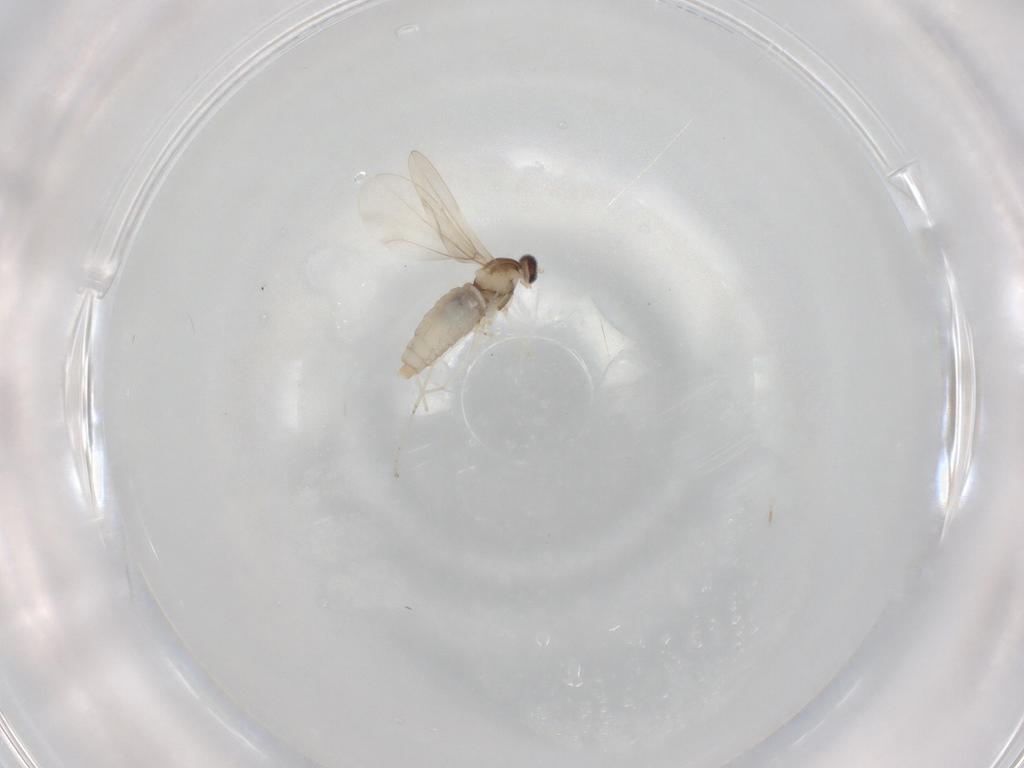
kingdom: Animalia
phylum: Arthropoda
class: Insecta
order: Diptera
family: Cecidomyiidae
